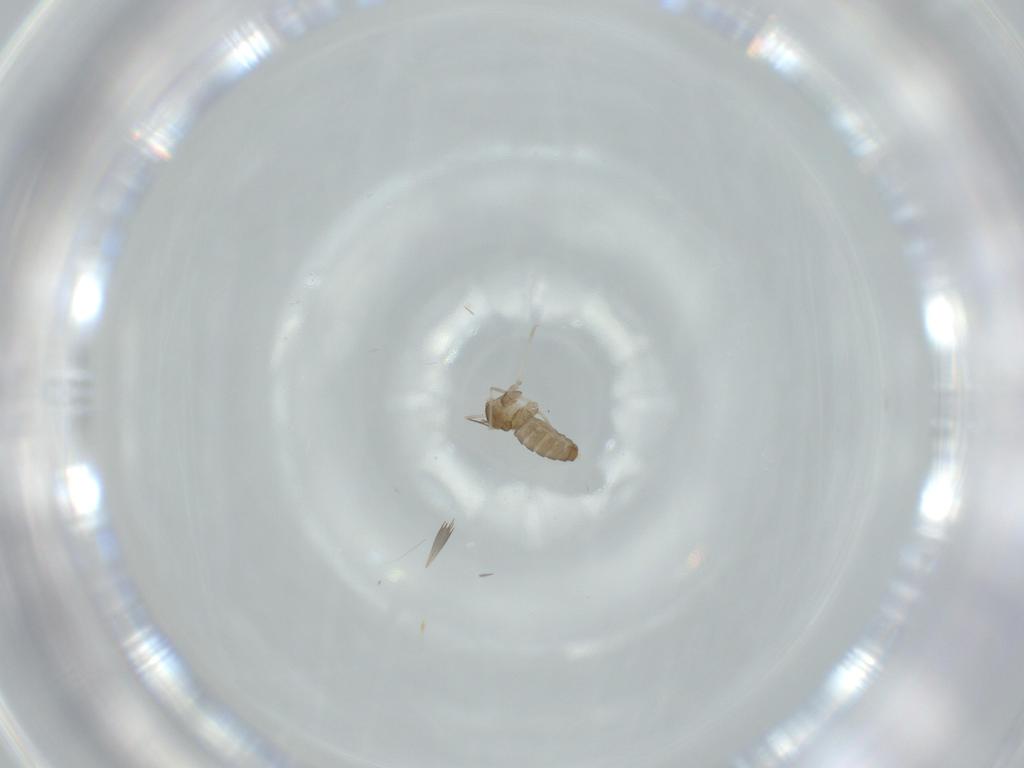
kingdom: Animalia
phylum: Arthropoda
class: Insecta
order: Diptera
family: Cecidomyiidae
